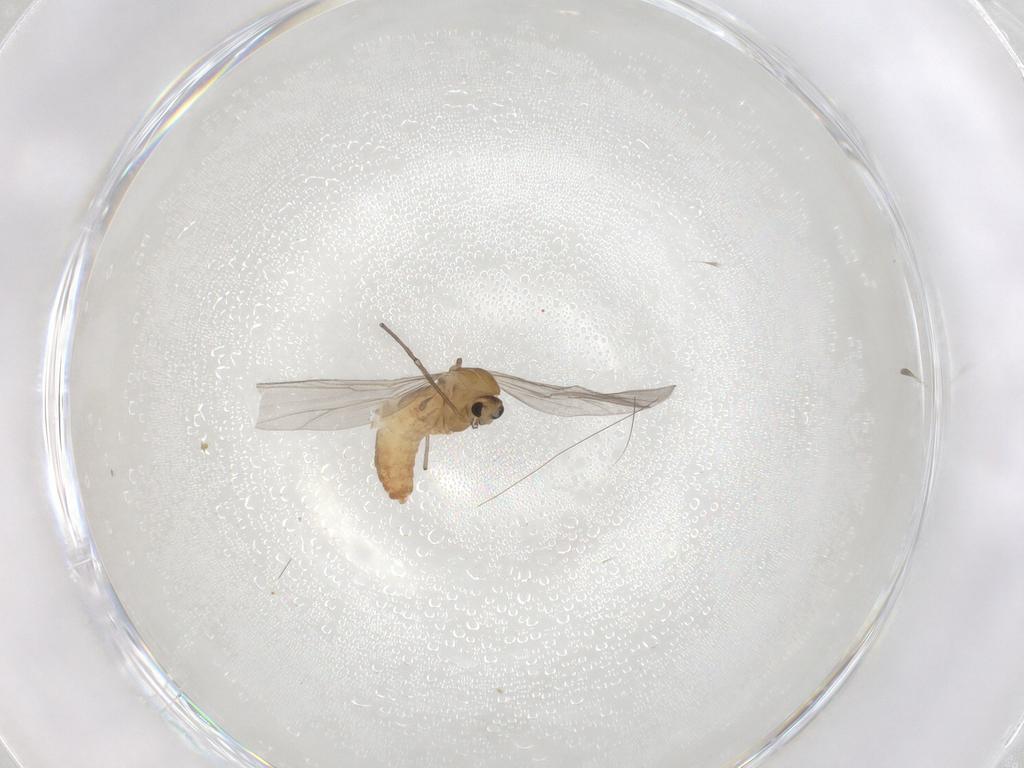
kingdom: Animalia
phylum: Arthropoda
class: Insecta
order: Diptera
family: Chironomidae
